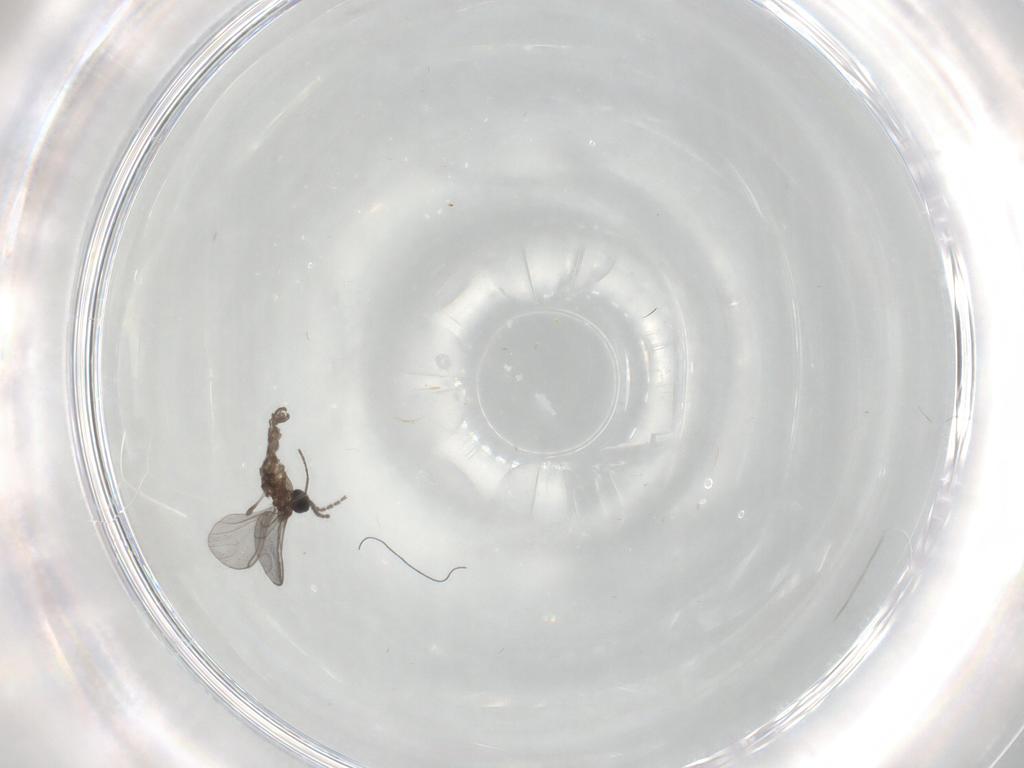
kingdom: Animalia
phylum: Arthropoda
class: Insecta
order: Diptera
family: Sciaridae
